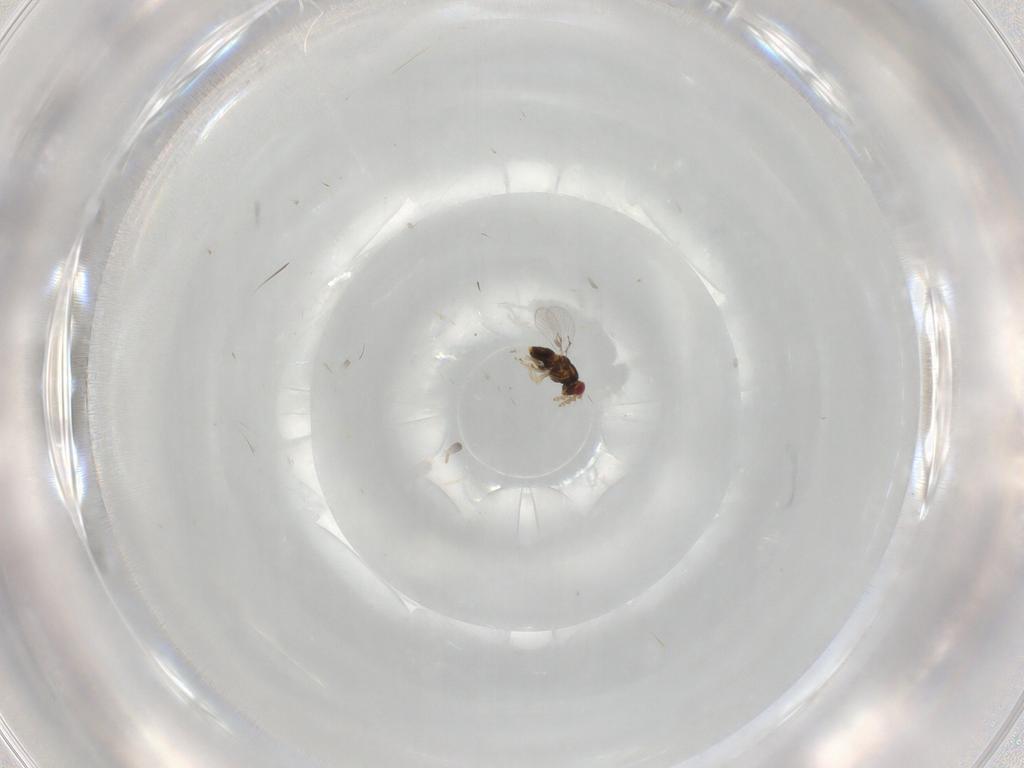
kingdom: Animalia
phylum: Arthropoda
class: Insecta
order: Hymenoptera
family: Trichogrammatidae
